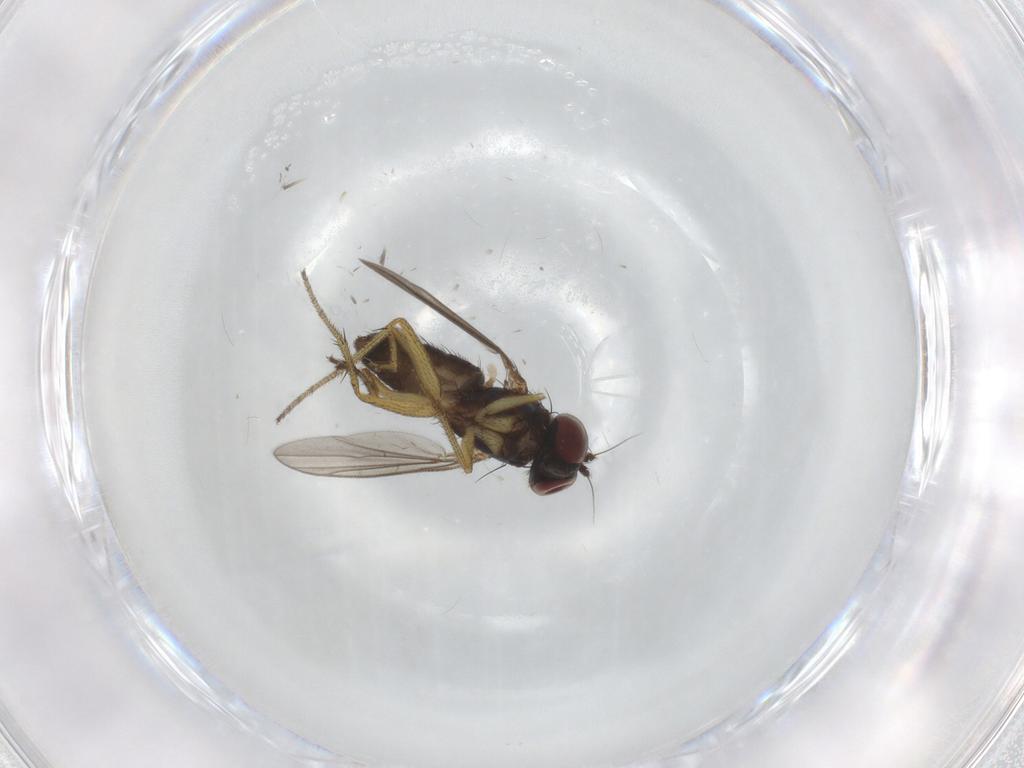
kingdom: Animalia
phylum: Arthropoda
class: Insecta
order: Diptera
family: Dolichopodidae
